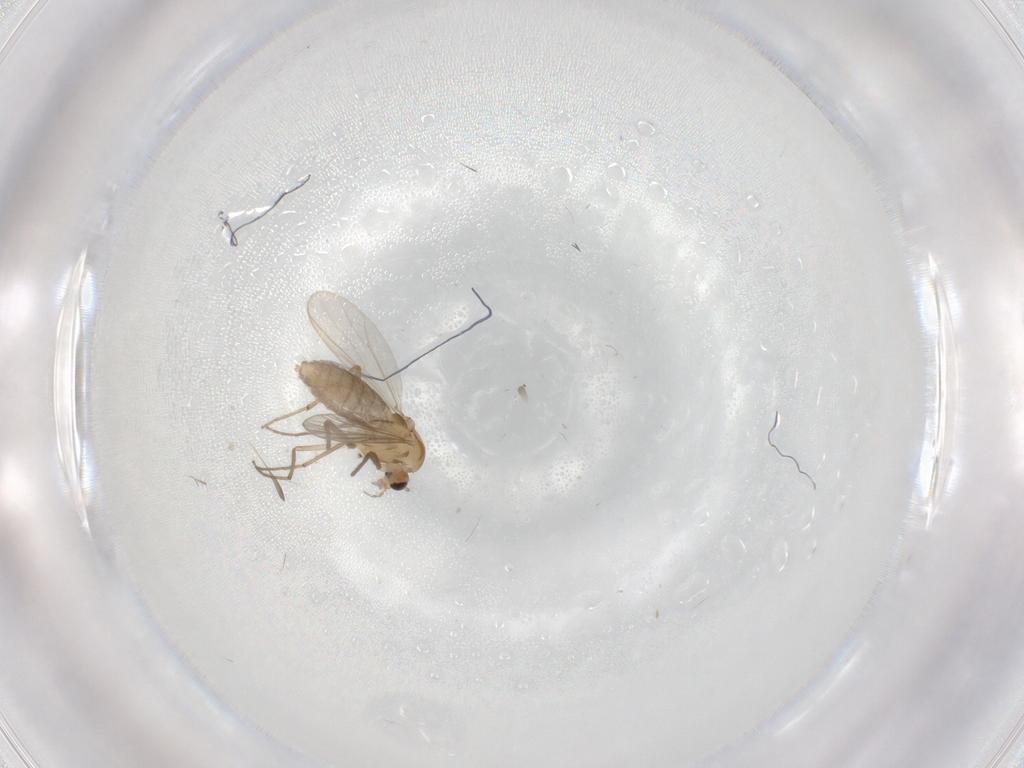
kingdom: Animalia
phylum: Arthropoda
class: Insecta
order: Diptera
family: Chironomidae
